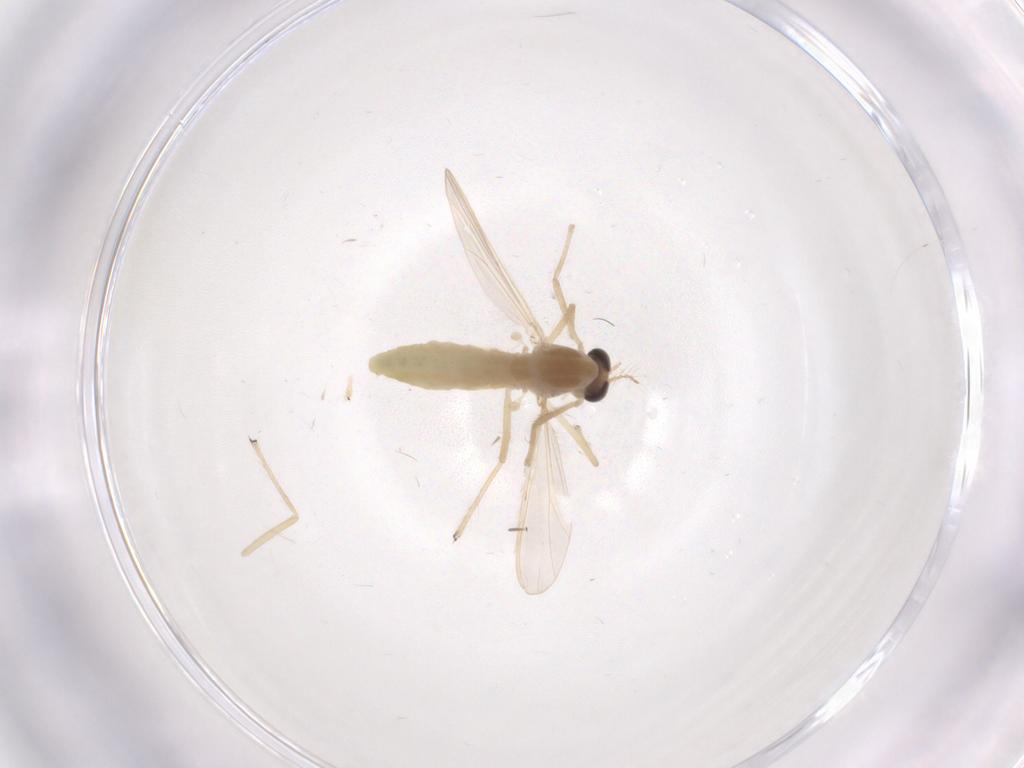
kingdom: Animalia
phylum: Arthropoda
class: Insecta
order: Diptera
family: Chironomidae
